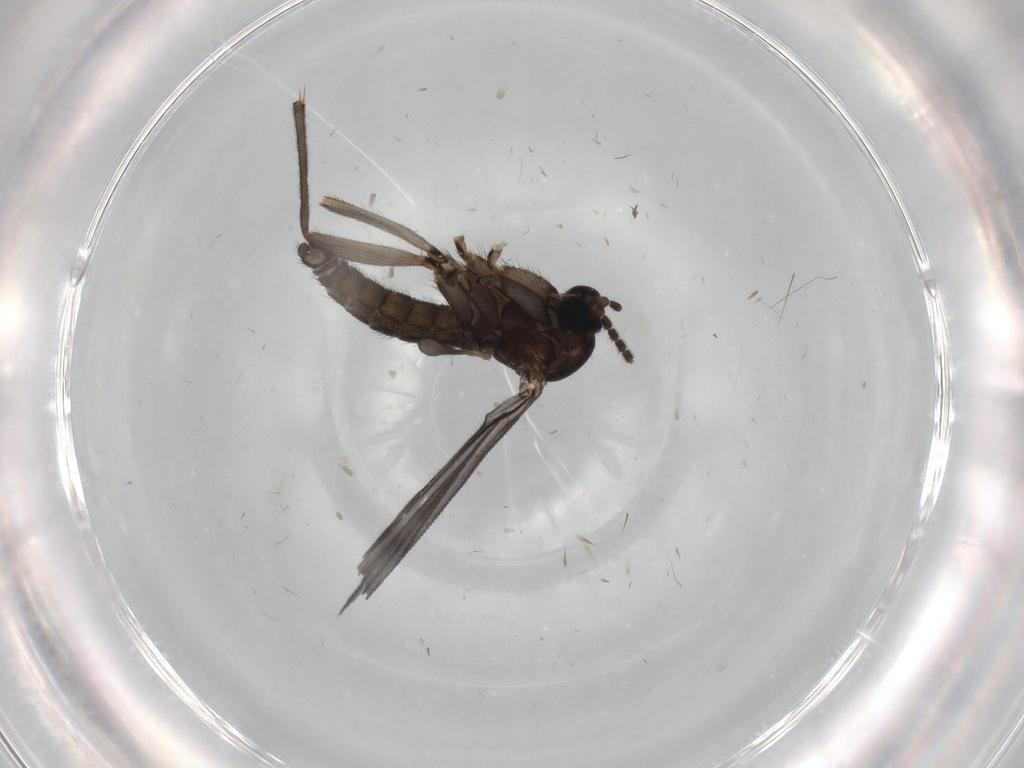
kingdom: Animalia
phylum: Arthropoda
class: Insecta
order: Diptera
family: Sciaridae
